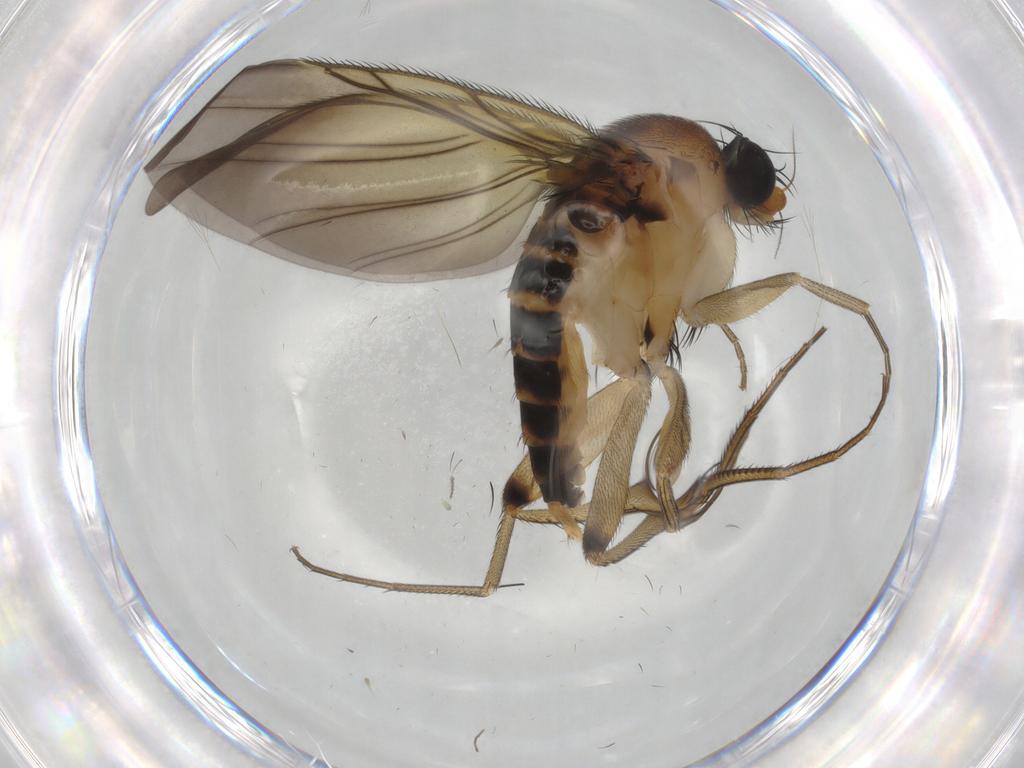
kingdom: Animalia
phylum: Arthropoda
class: Insecta
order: Diptera
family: Phoridae
